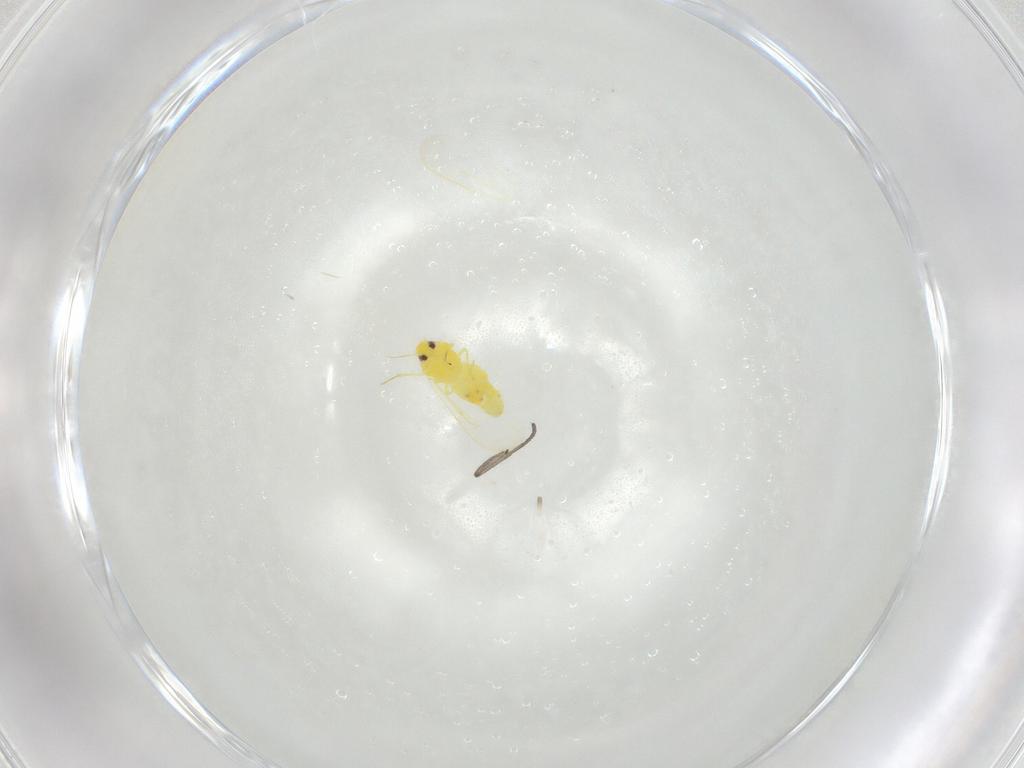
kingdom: Animalia
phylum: Arthropoda
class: Insecta
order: Hemiptera
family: Aleyrodidae
